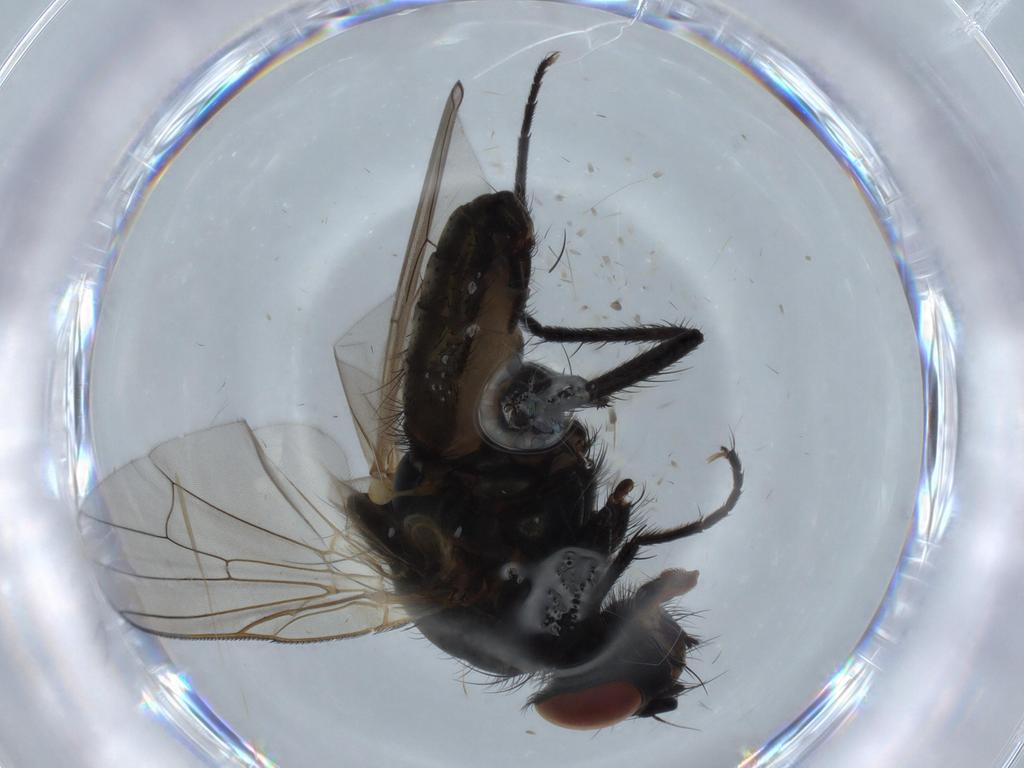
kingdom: Animalia
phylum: Arthropoda
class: Insecta
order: Diptera
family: Anthomyiidae
